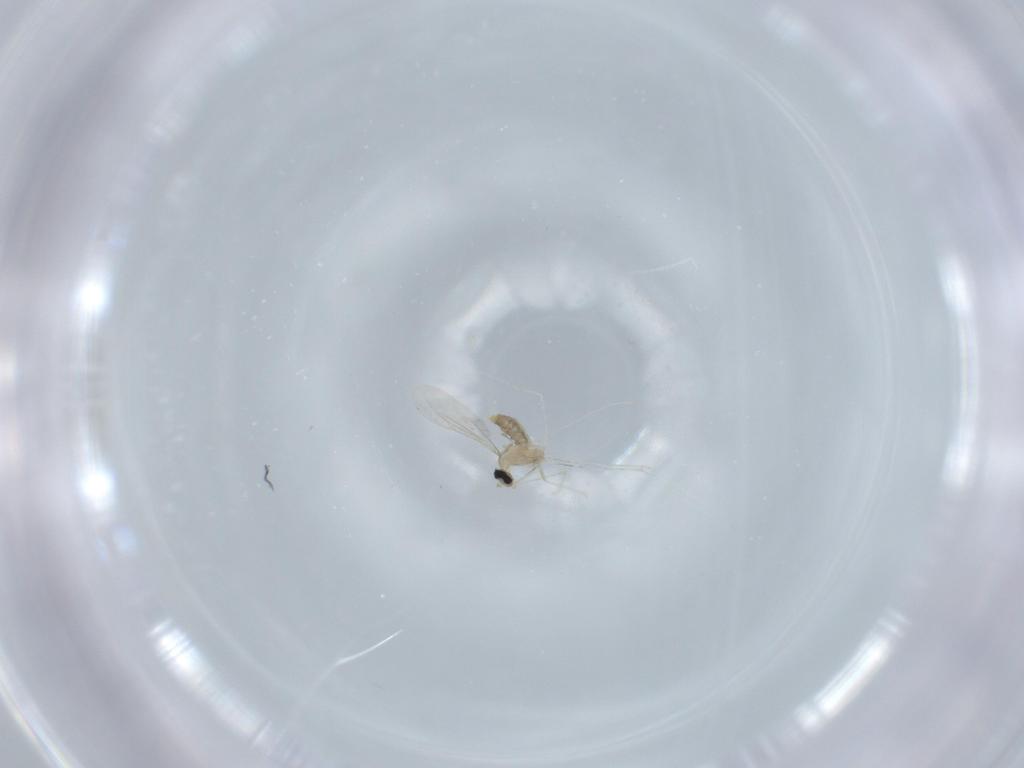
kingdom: Animalia
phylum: Arthropoda
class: Insecta
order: Diptera
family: Cecidomyiidae
